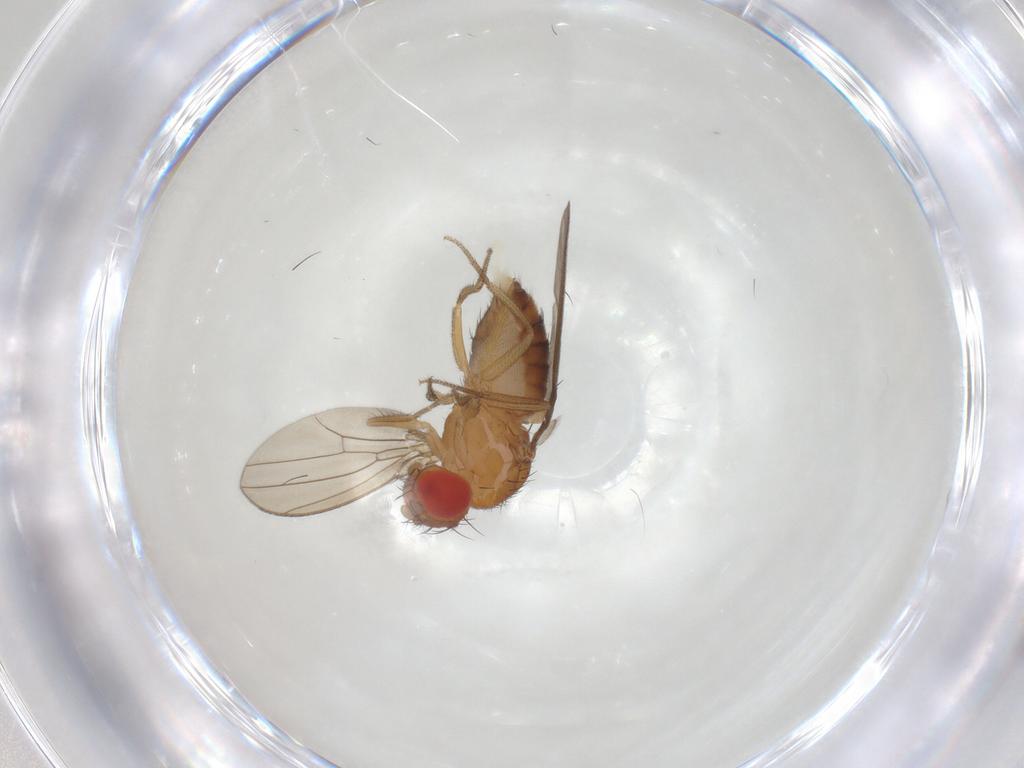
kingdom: Animalia
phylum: Arthropoda
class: Insecta
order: Diptera
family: Drosophilidae
